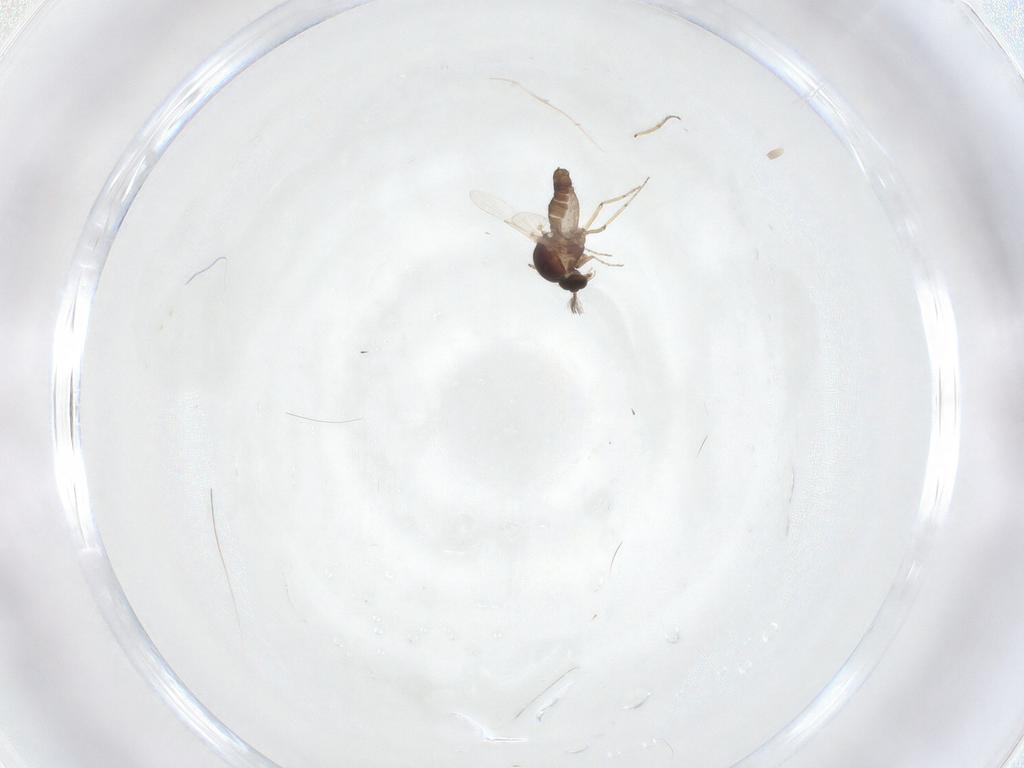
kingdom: Animalia
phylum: Arthropoda
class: Insecta
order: Diptera
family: Ceratopogonidae
